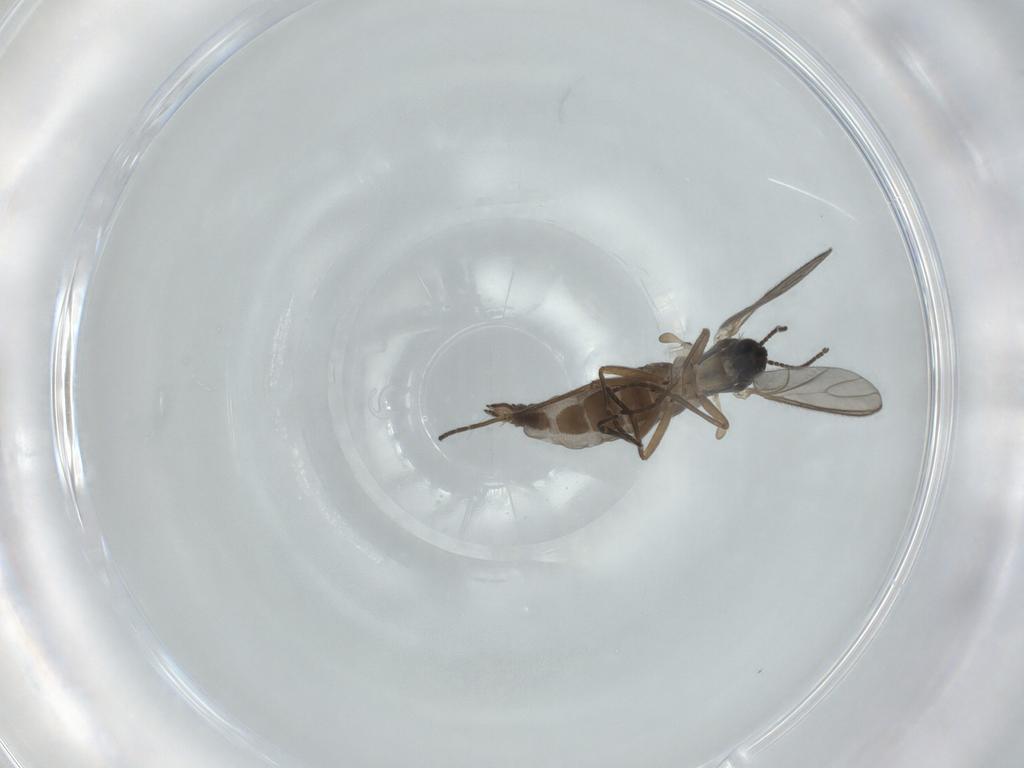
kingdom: Animalia
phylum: Arthropoda
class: Insecta
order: Diptera
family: Sciaridae
